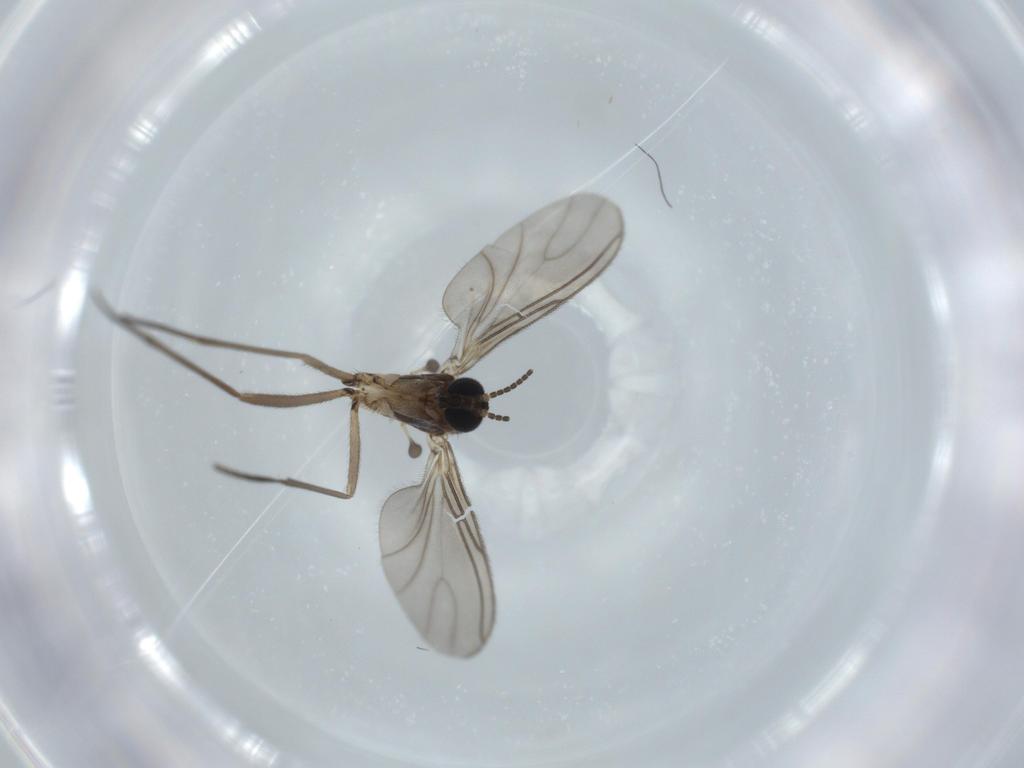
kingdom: Animalia
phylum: Arthropoda
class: Insecta
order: Diptera
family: Sciaridae
